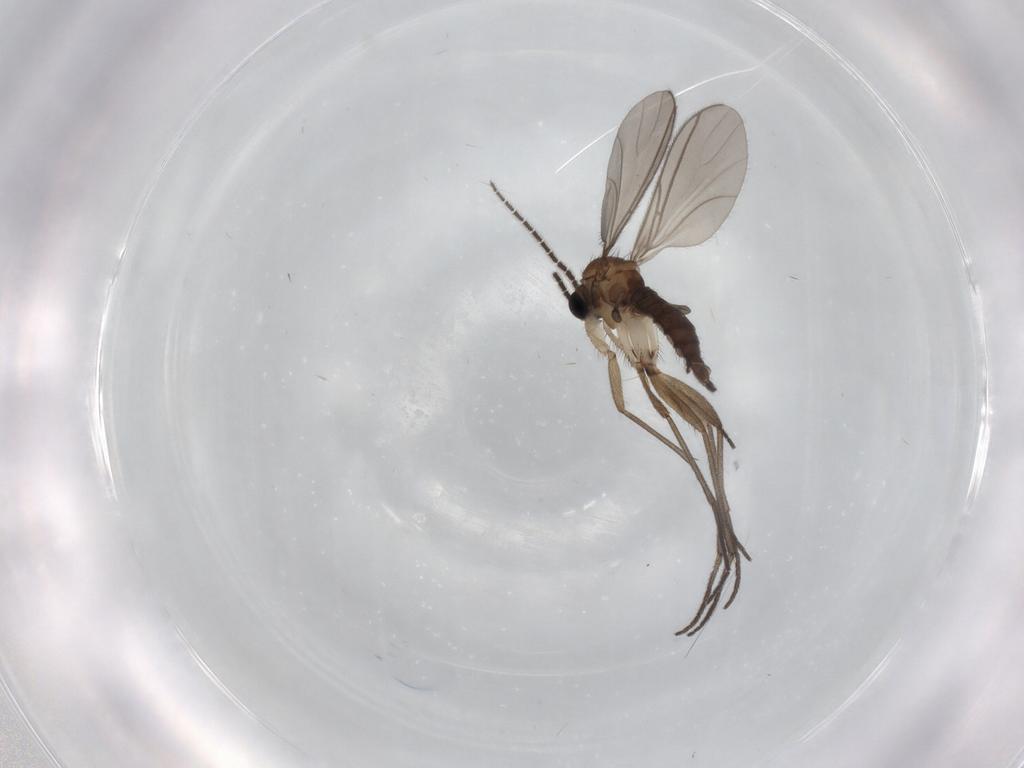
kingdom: Animalia
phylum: Arthropoda
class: Insecta
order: Diptera
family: Sciaridae
